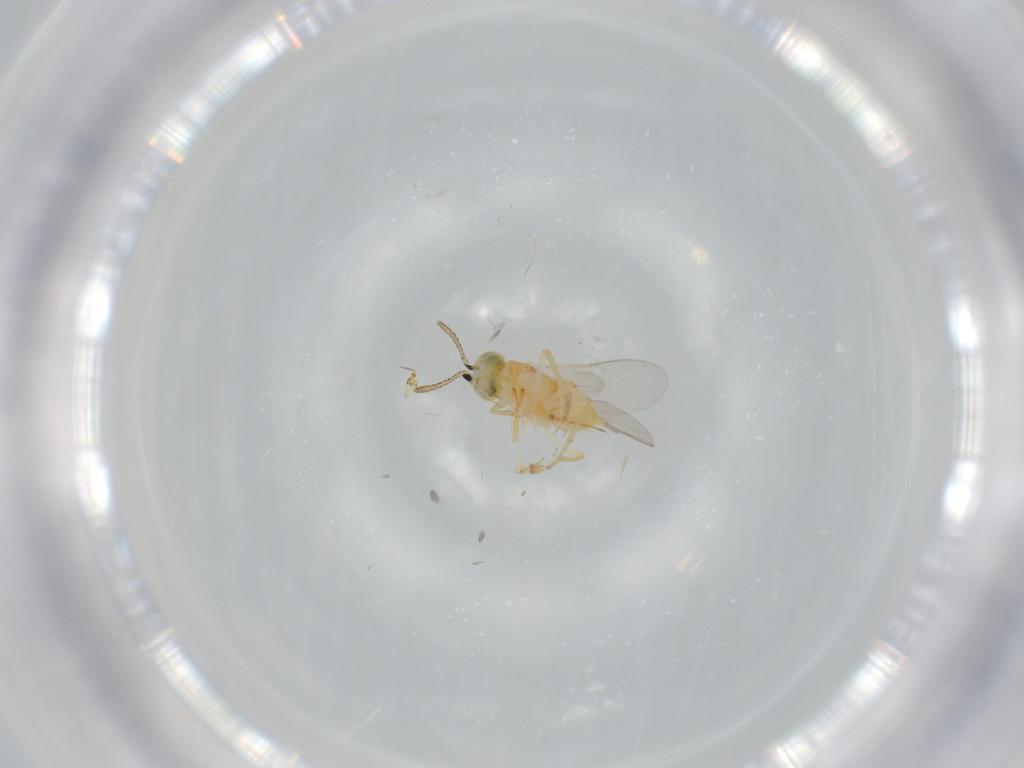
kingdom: Animalia
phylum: Arthropoda
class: Insecta
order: Hymenoptera
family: Encyrtidae
